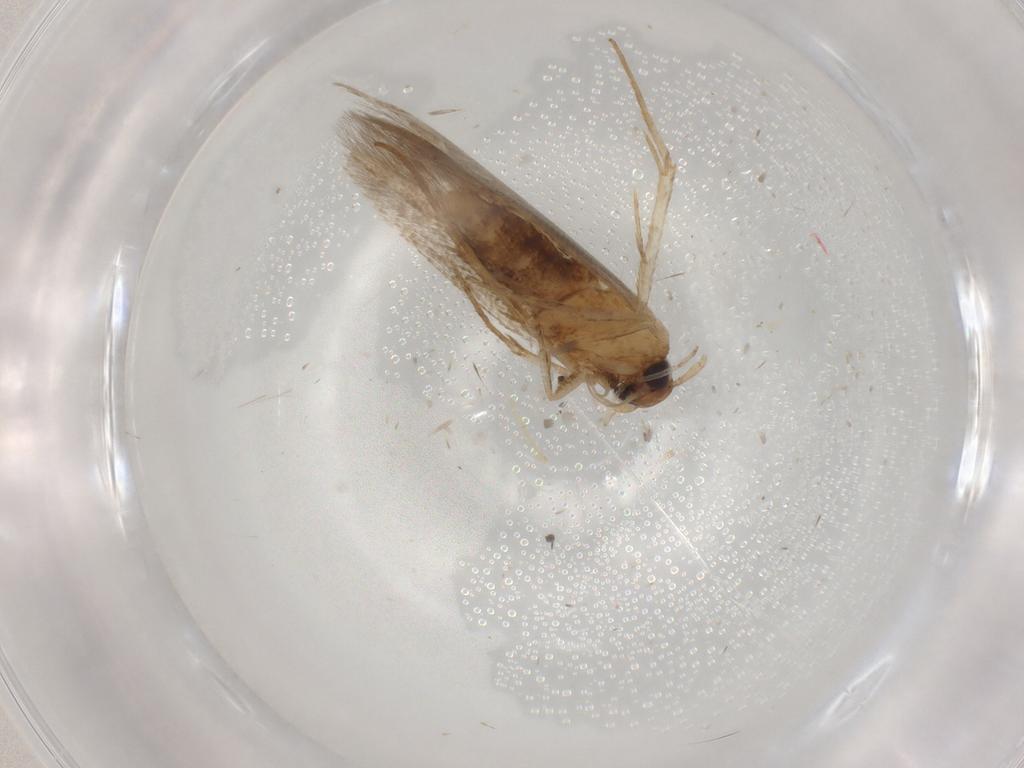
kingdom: Animalia
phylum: Arthropoda
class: Insecta
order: Lepidoptera
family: Cosmopterigidae
